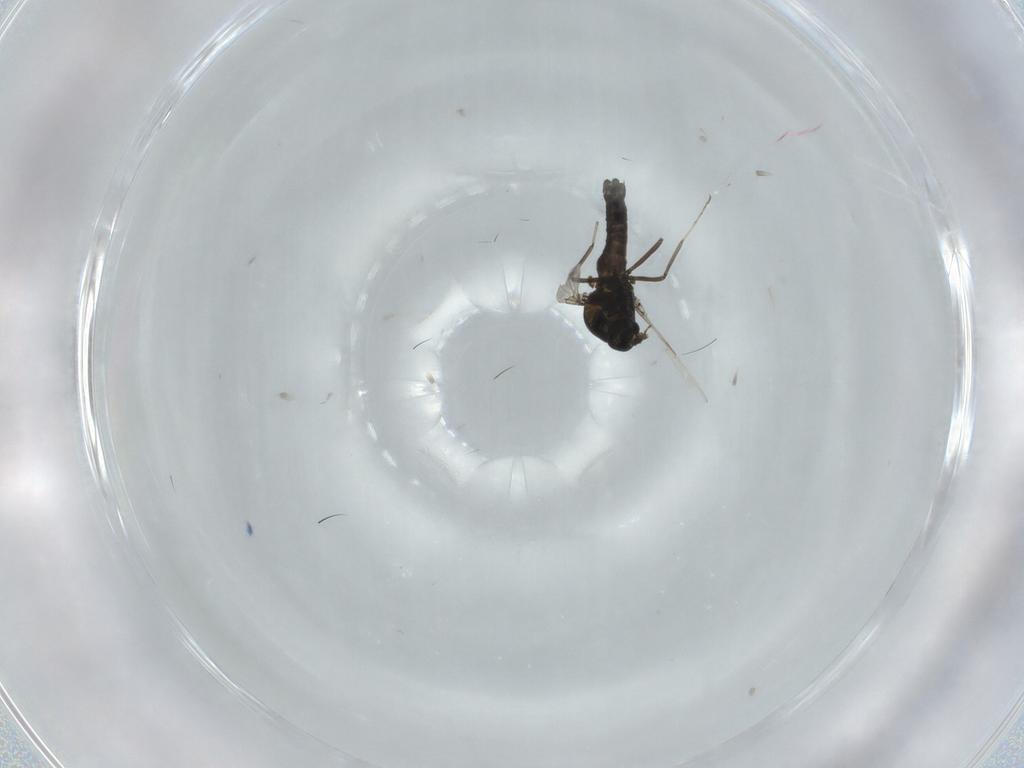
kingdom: Animalia
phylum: Arthropoda
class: Insecta
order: Diptera
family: Ceratopogonidae
